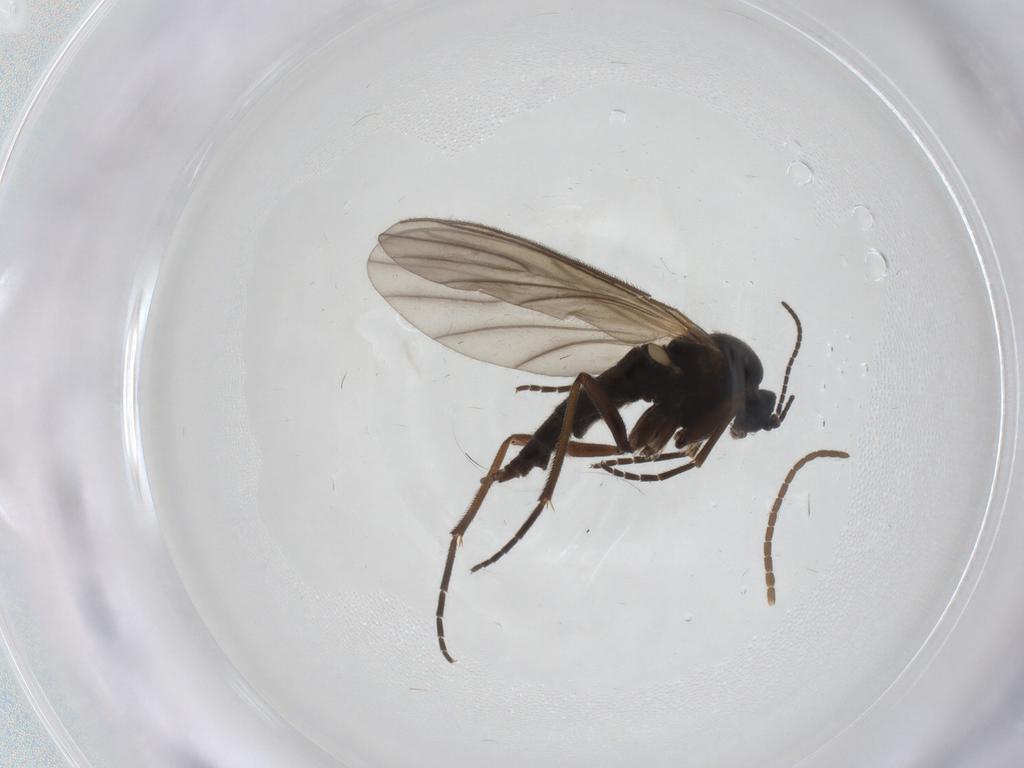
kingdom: Animalia
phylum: Arthropoda
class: Insecta
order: Diptera
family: Sciaridae
